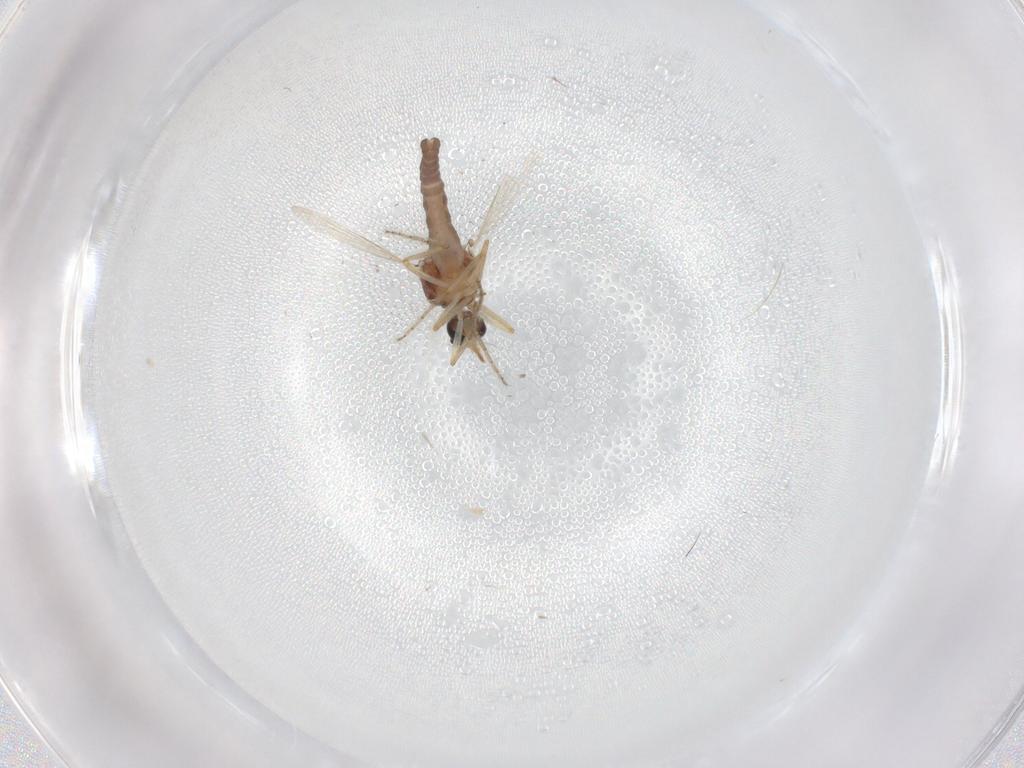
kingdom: Animalia
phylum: Arthropoda
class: Insecta
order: Diptera
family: Ceratopogonidae
